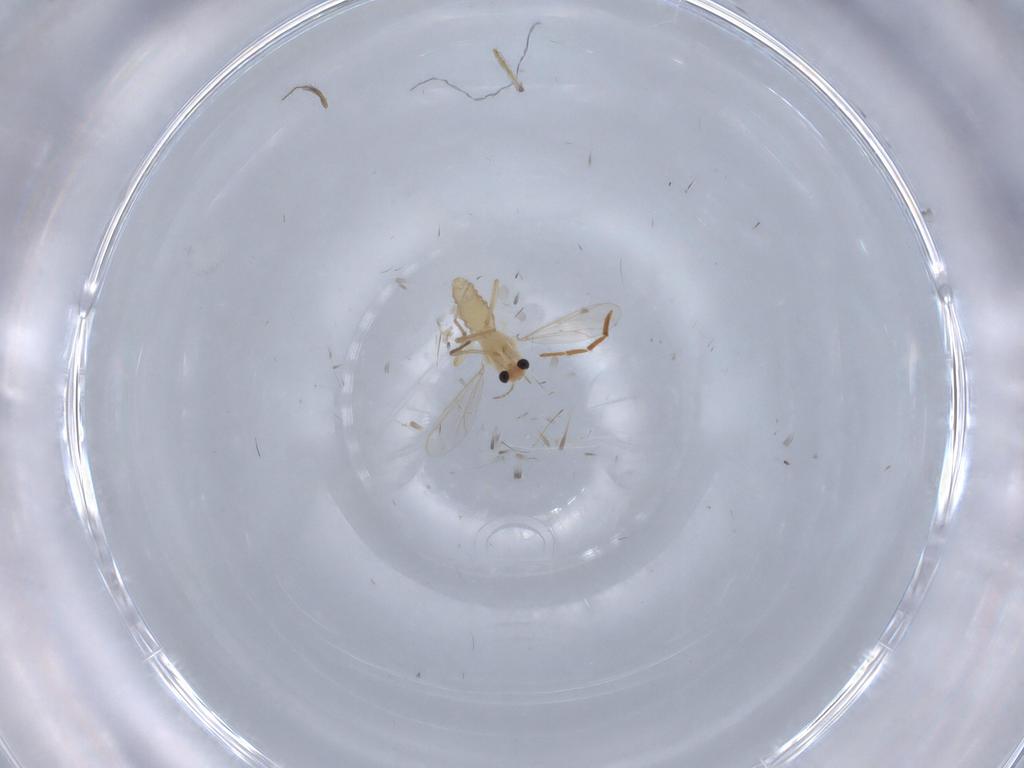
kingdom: Animalia
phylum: Arthropoda
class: Insecta
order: Diptera
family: Chironomidae
